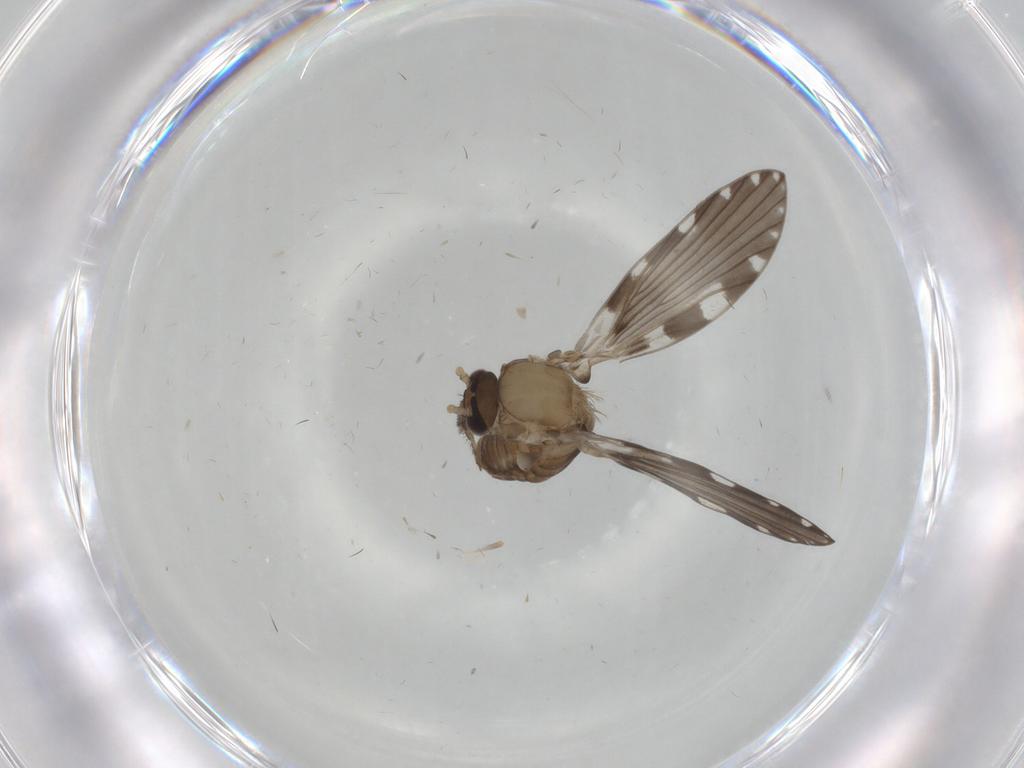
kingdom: Animalia
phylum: Arthropoda
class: Insecta
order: Diptera
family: Psychodidae
